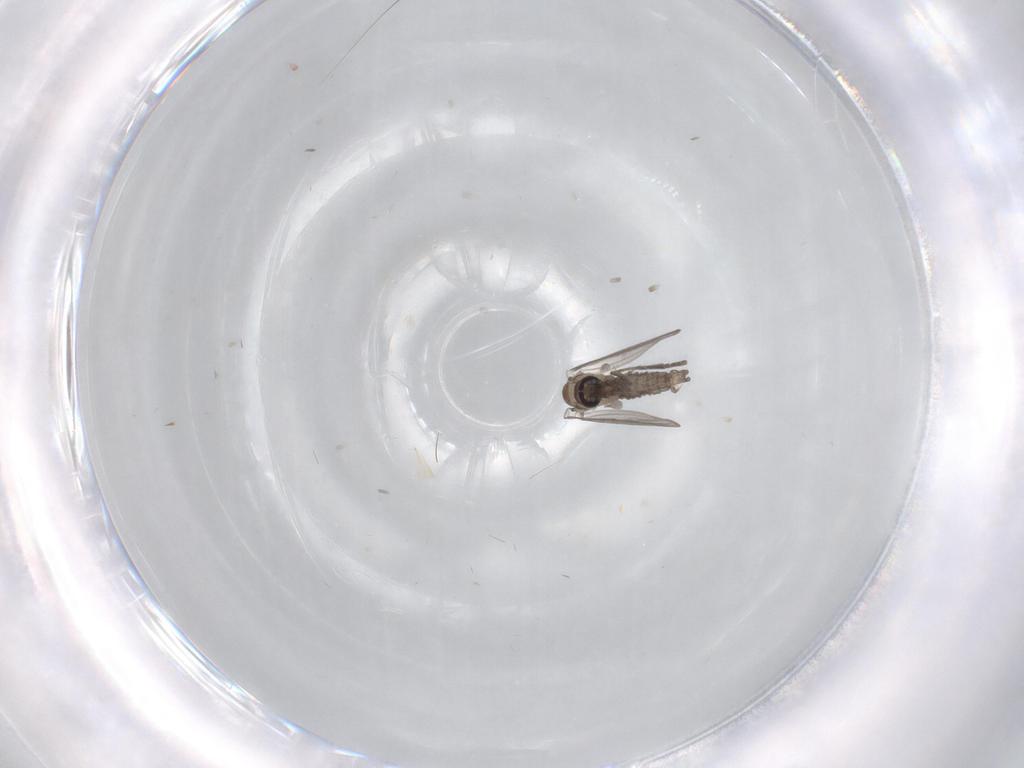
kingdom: Animalia
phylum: Arthropoda
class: Insecta
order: Diptera
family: Psychodidae
